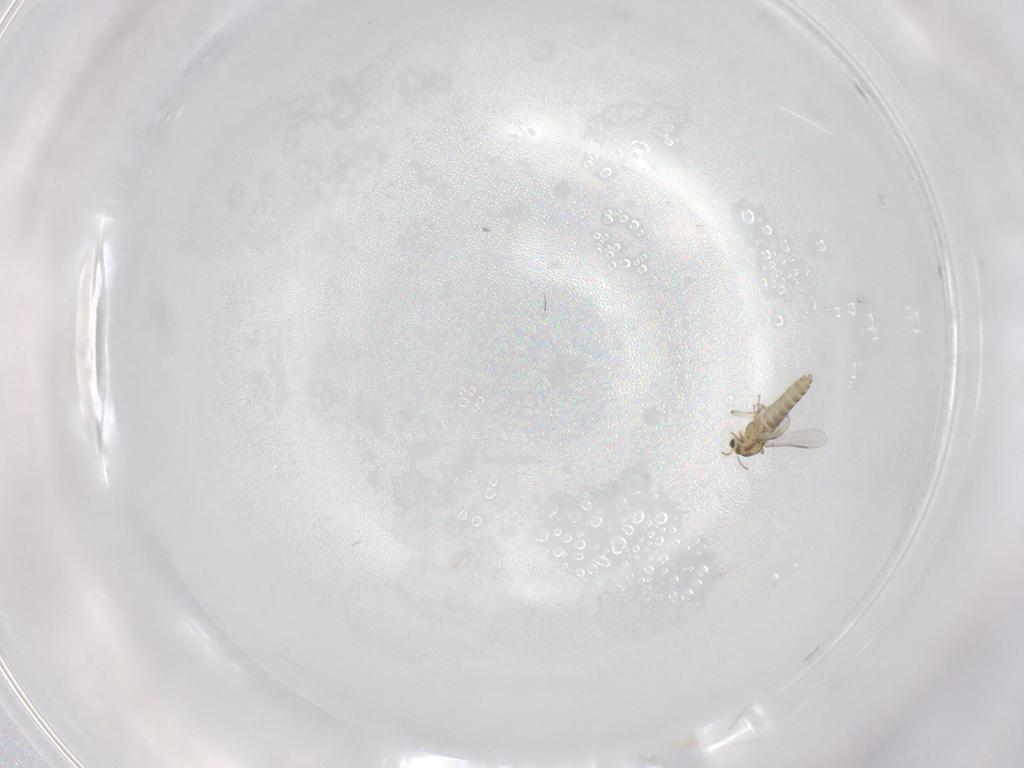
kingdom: Animalia
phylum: Arthropoda
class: Insecta
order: Diptera
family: Chironomidae
